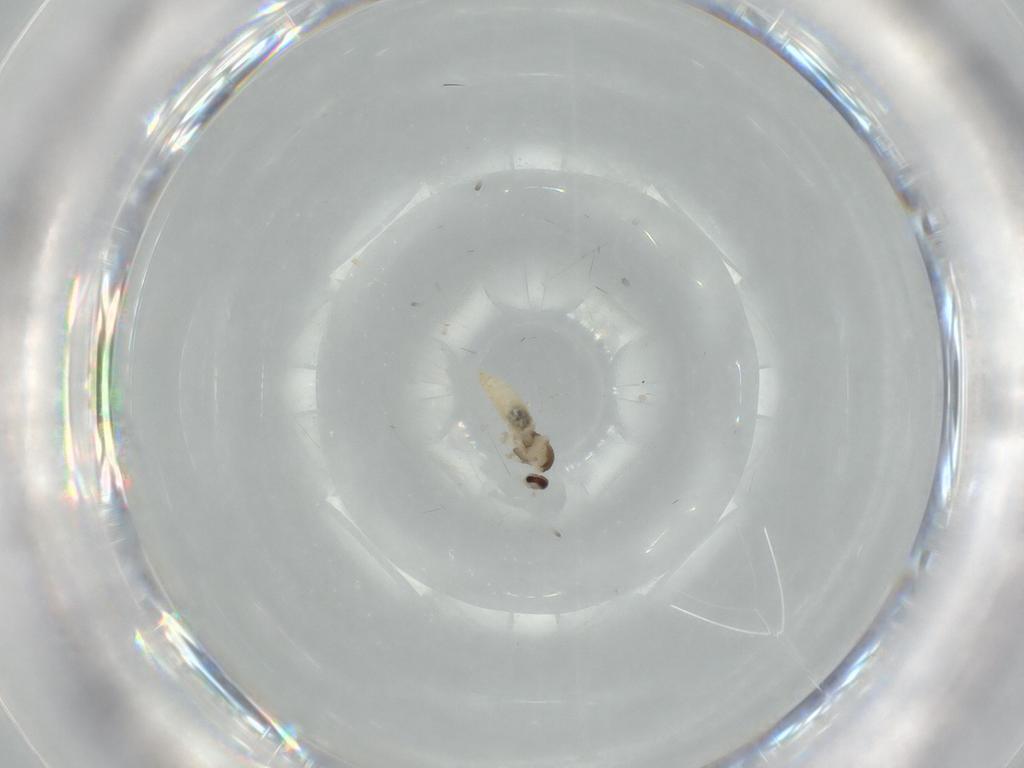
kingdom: Animalia
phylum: Arthropoda
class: Insecta
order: Diptera
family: Cecidomyiidae
